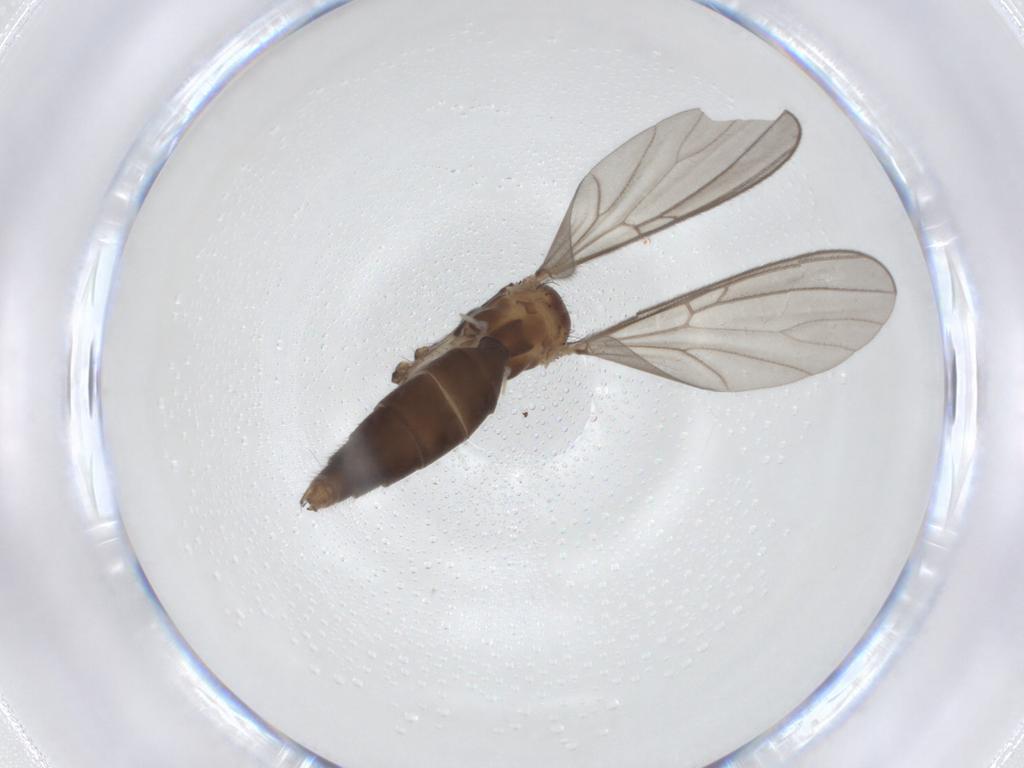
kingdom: Animalia
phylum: Arthropoda
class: Insecta
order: Diptera
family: Mycetophilidae
